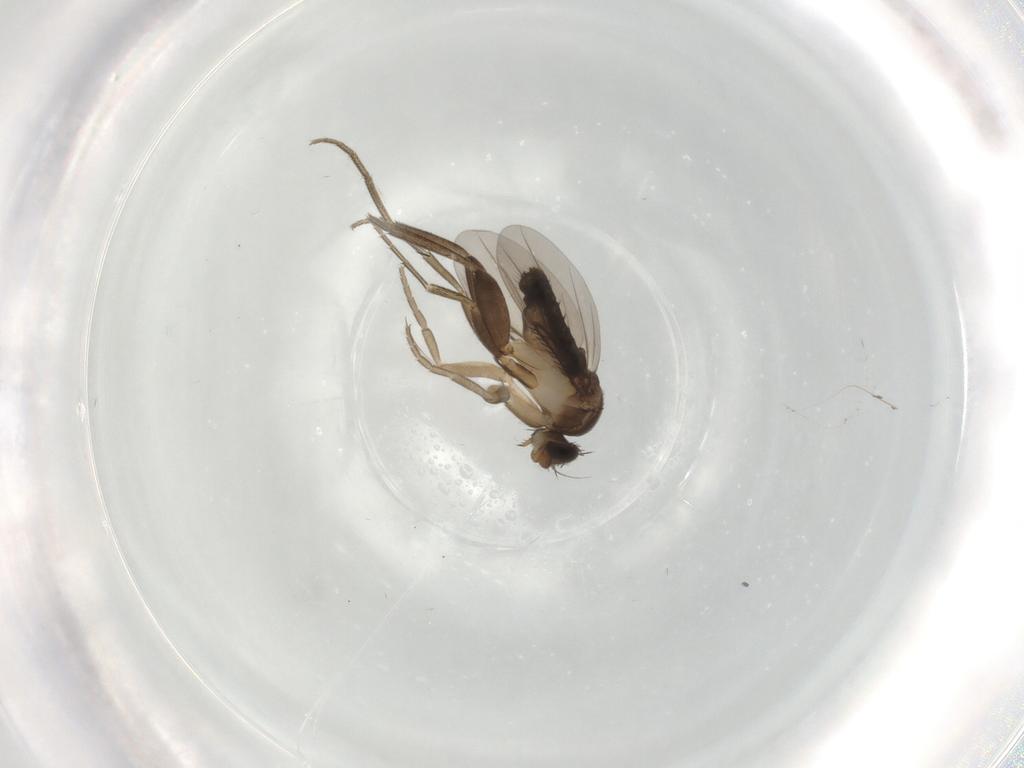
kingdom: Animalia
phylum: Arthropoda
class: Insecta
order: Diptera
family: Phoridae
